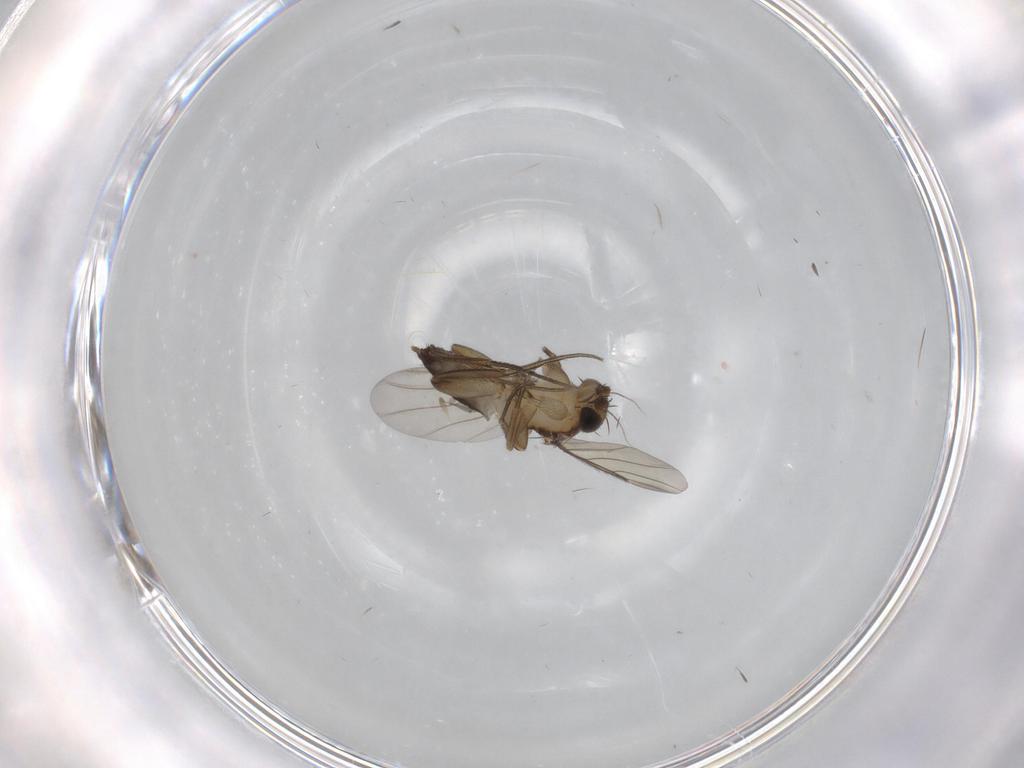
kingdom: Animalia
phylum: Arthropoda
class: Insecta
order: Diptera
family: Phoridae
